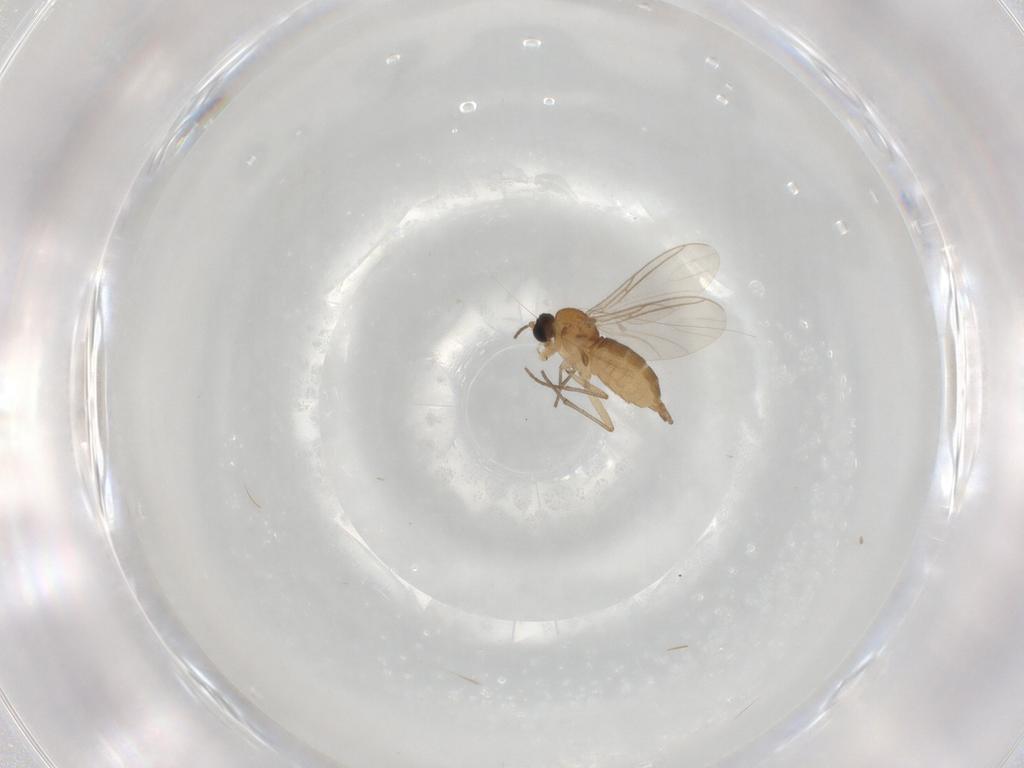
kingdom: Animalia
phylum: Arthropoda
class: Insecta
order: Diptera
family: Sciaridae
